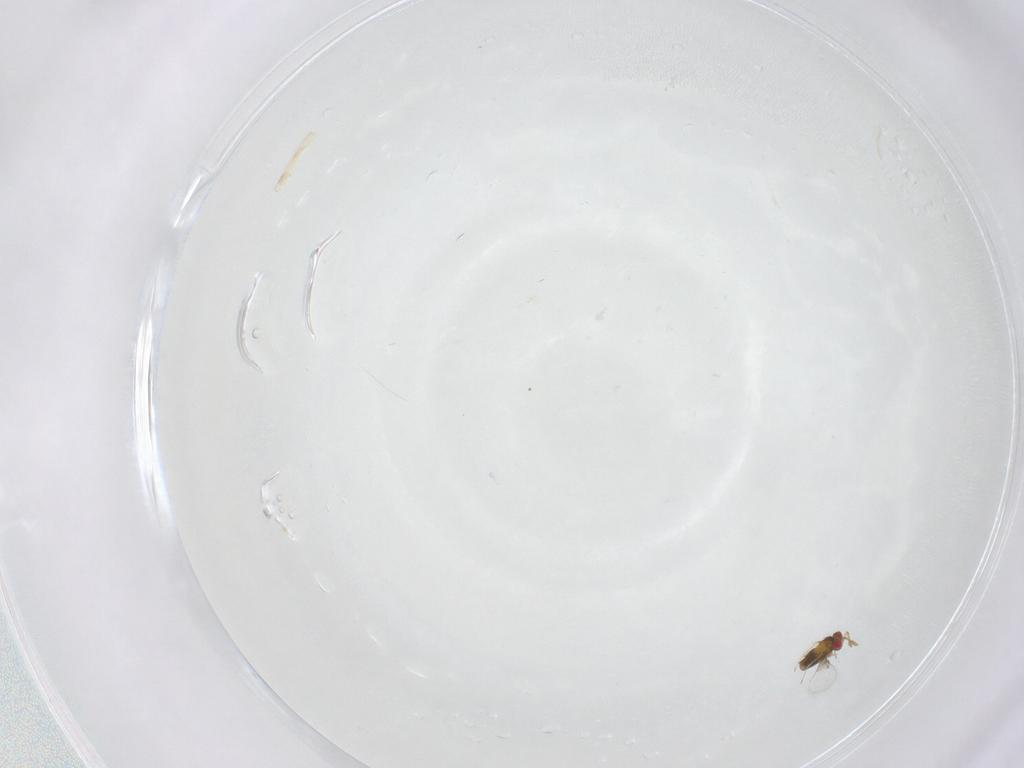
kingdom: Animalia
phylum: Arthropoda
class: Insecta
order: Hymenoptera
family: Trichogrammatidae
